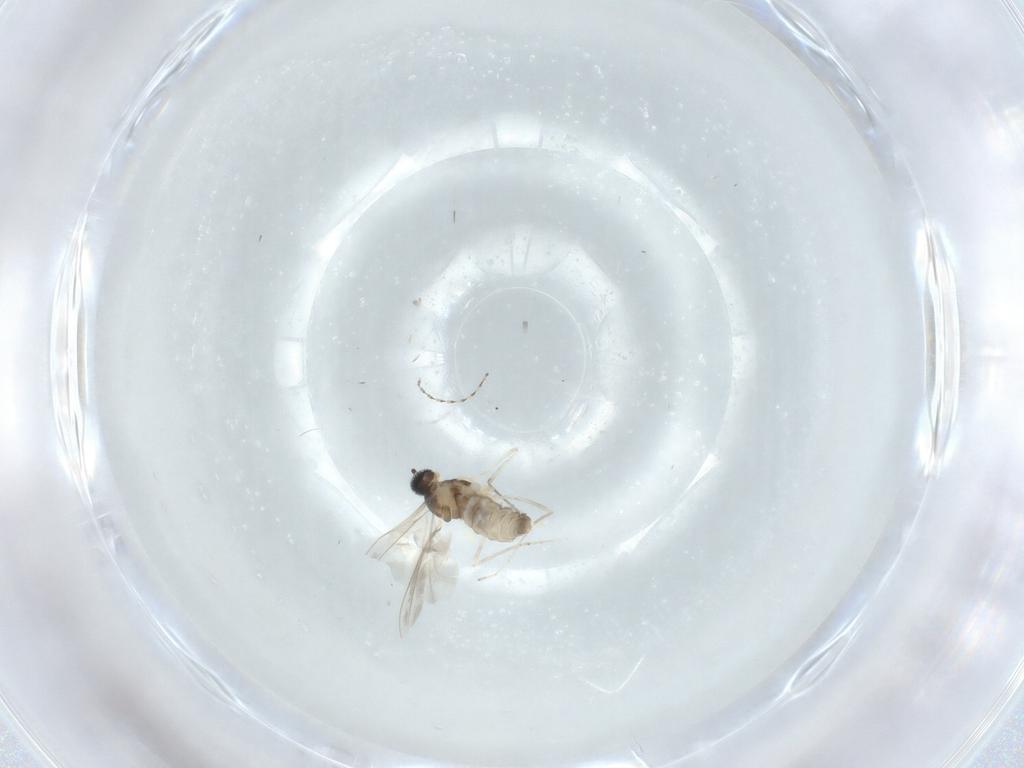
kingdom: Animalia
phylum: Arthropoda
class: Insecta
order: Diptera
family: Cecidomyiidae
